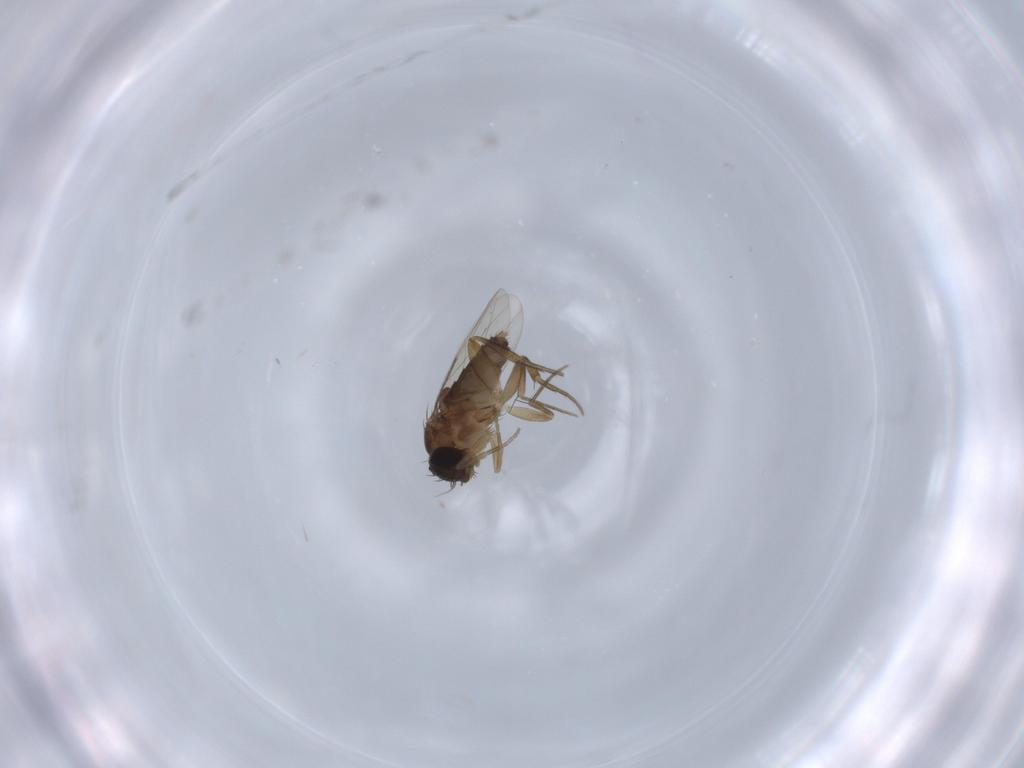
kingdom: Animalia
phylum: Arthropoda
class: Insecta
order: Diptera
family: Phoridae
